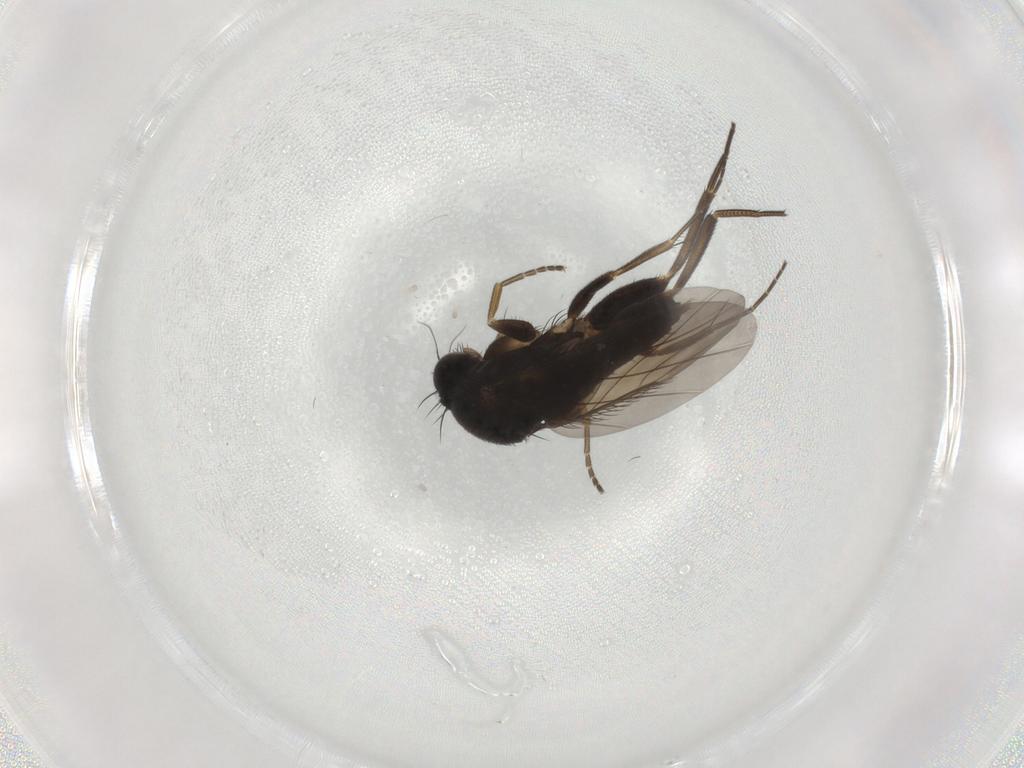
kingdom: Animalia
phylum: Arthropoda
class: Insecta
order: Diptera
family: Phoridae
